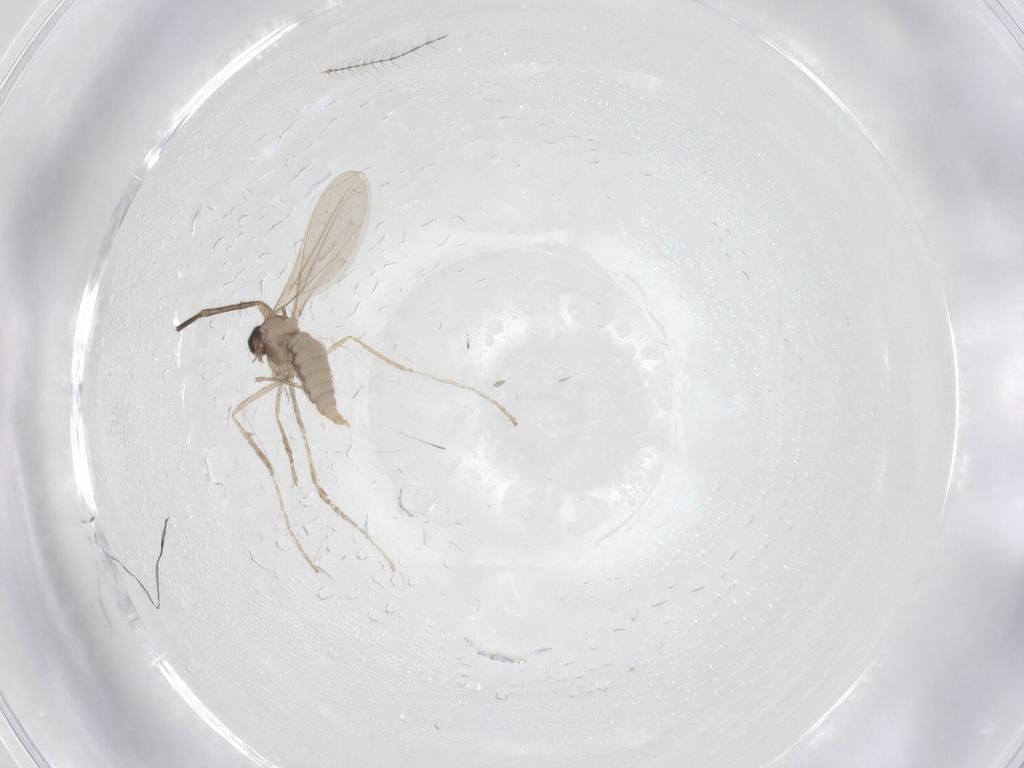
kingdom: Animalia
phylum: Arthropoda
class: Insecta
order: Diptera
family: Cecidomyiidae
